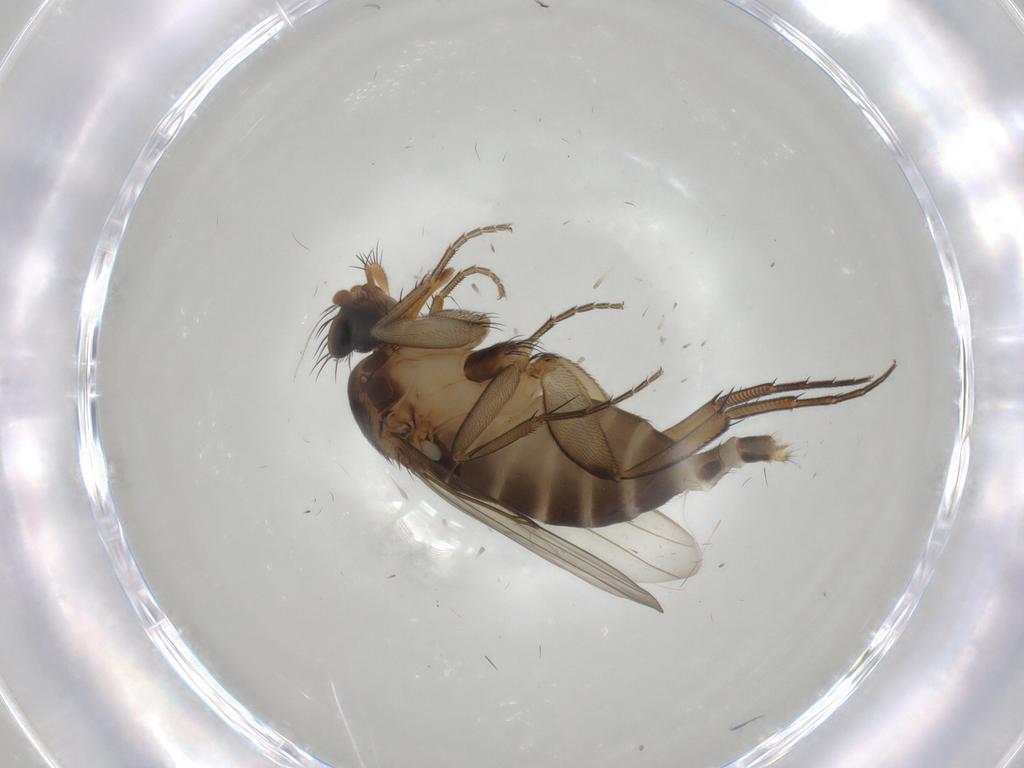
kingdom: Animalia
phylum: Arthropoda
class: Insecta
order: Diptera
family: Phoridae
